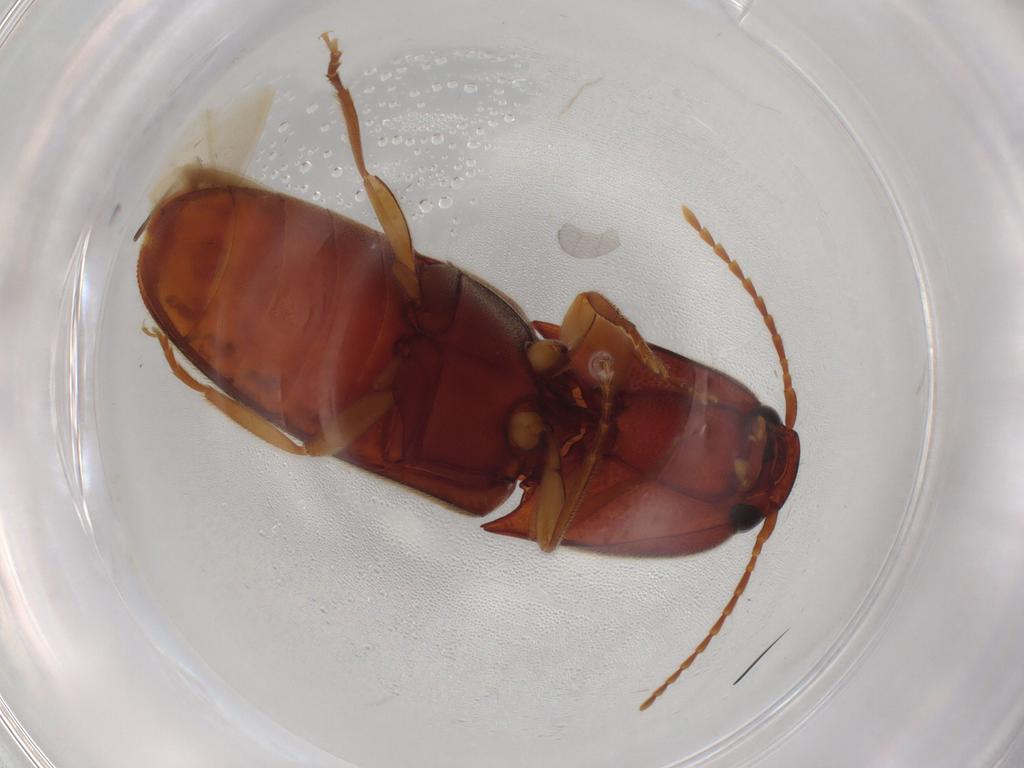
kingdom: Animalia
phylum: Arthropoda
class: Insecta
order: Coleoptera
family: Elateridae
